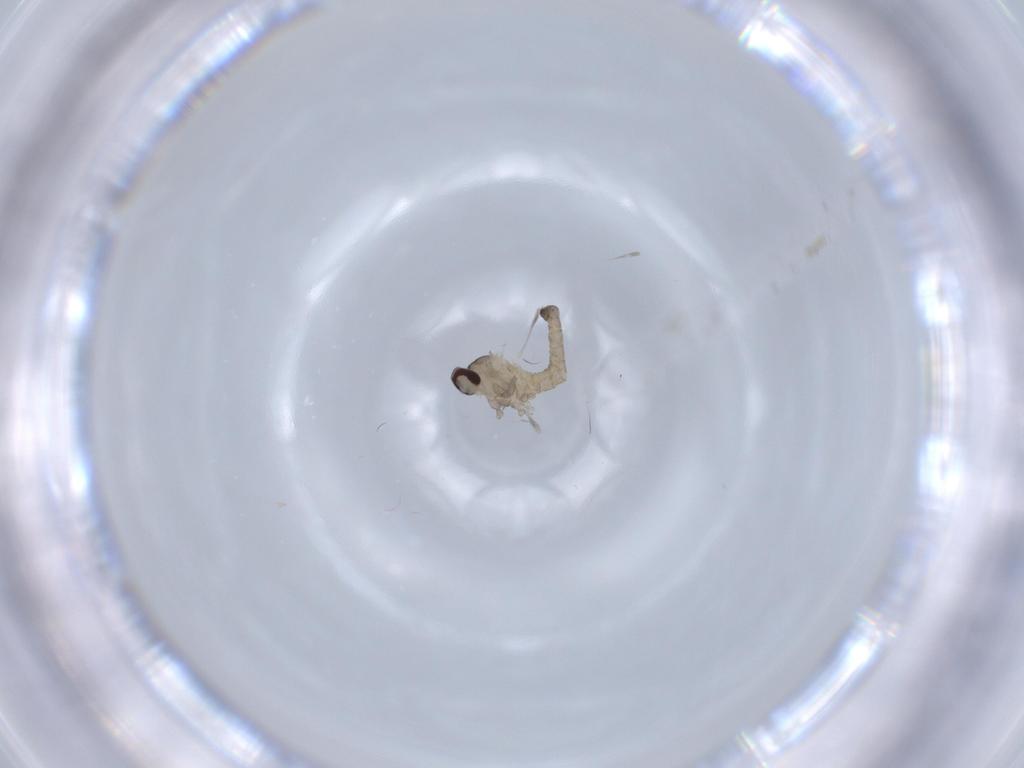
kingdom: Animalia
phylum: Arthropoda
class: Insecta
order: Diptera
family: Cecidomyiidae
